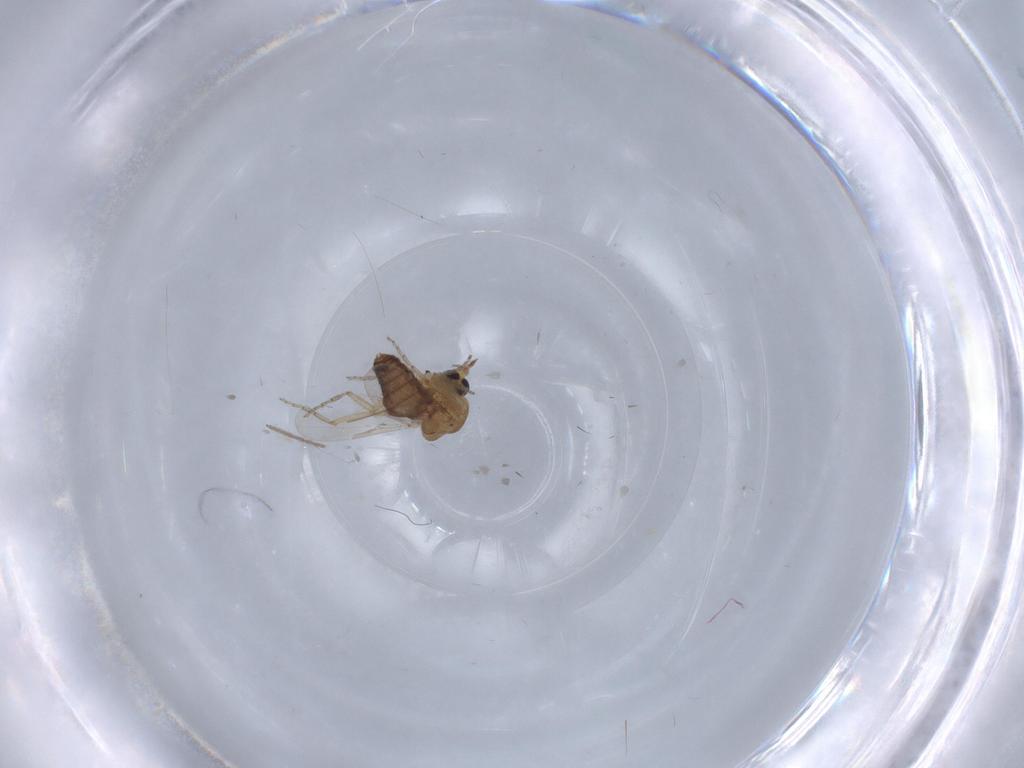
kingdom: Animalia
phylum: Arthropoda
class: Insecta
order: Diptera
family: Ceratopogonidae
